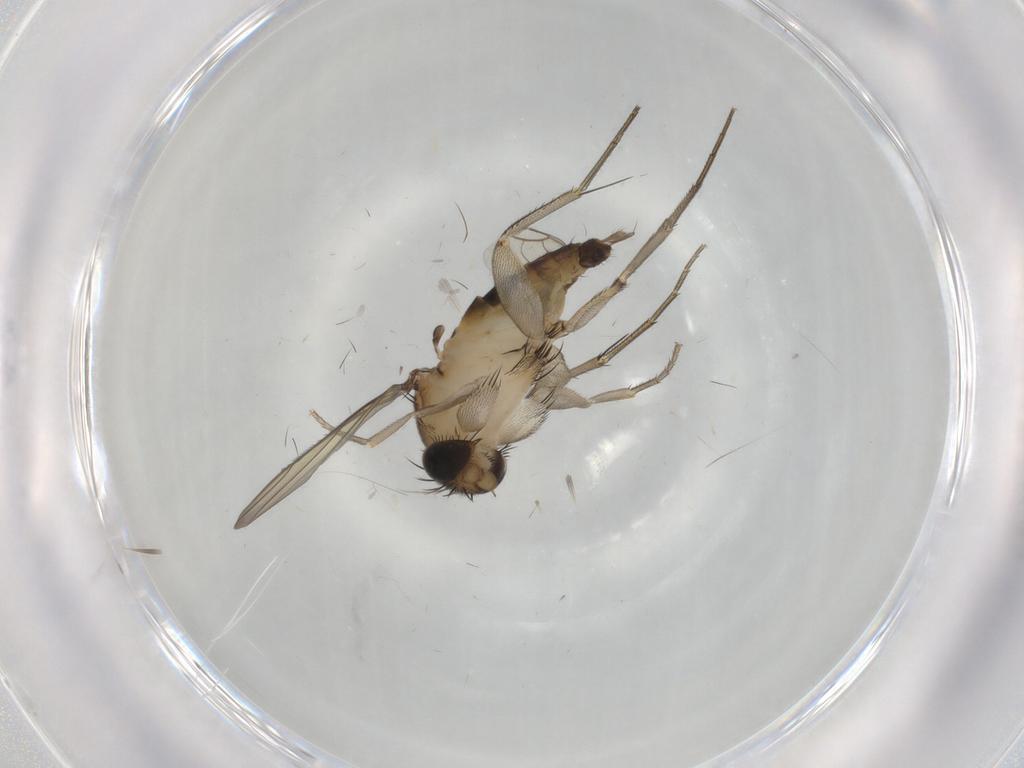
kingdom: Animalia
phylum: Arthropoda
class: Insecta
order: Diptera
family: Phoridae
